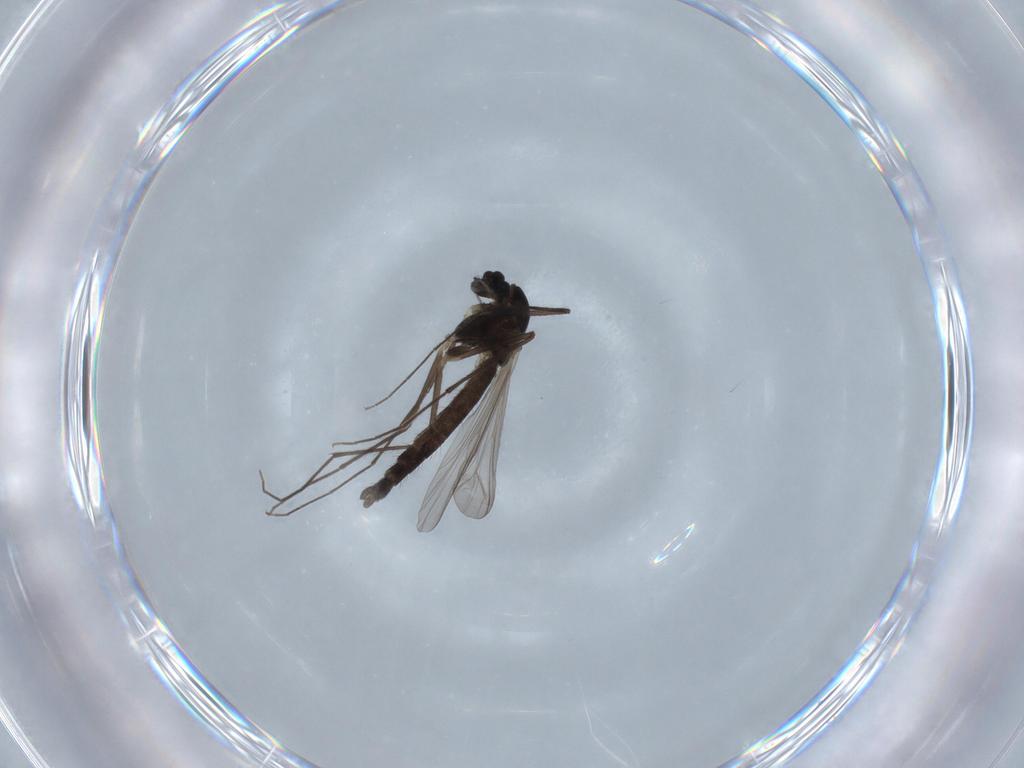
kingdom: Animalia
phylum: Arthropoda
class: Insecta
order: Diptera
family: Chironomidae
